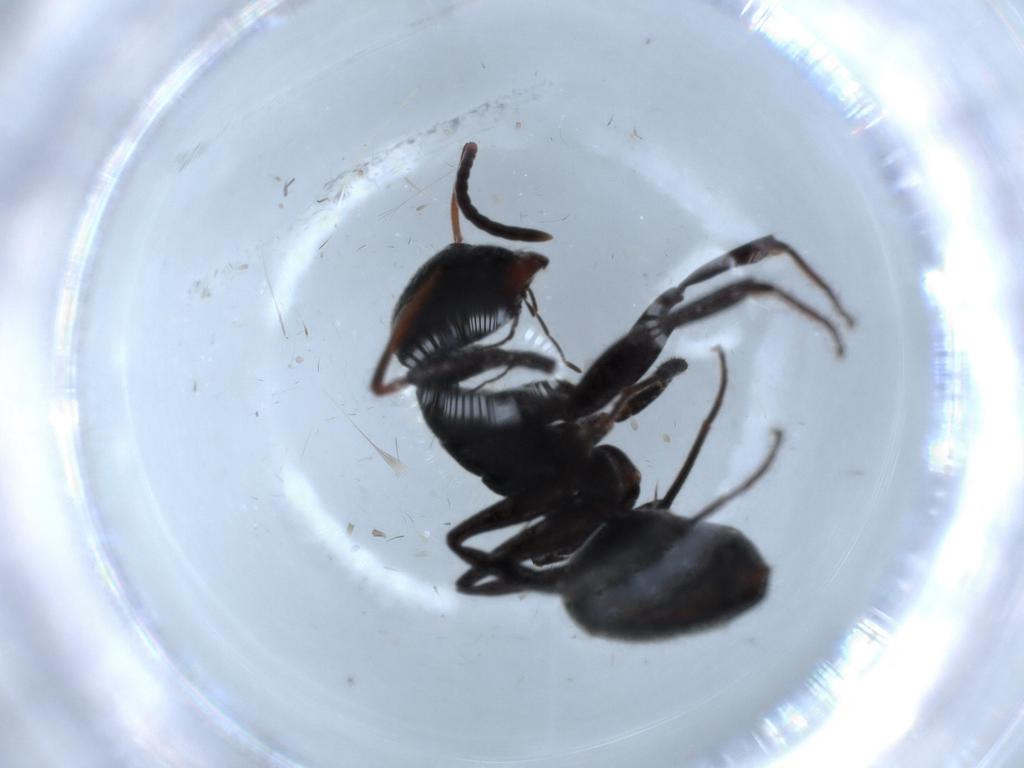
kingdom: Animalia
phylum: Arthropoda
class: Insecta
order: Hymenoptera
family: Formicidae
